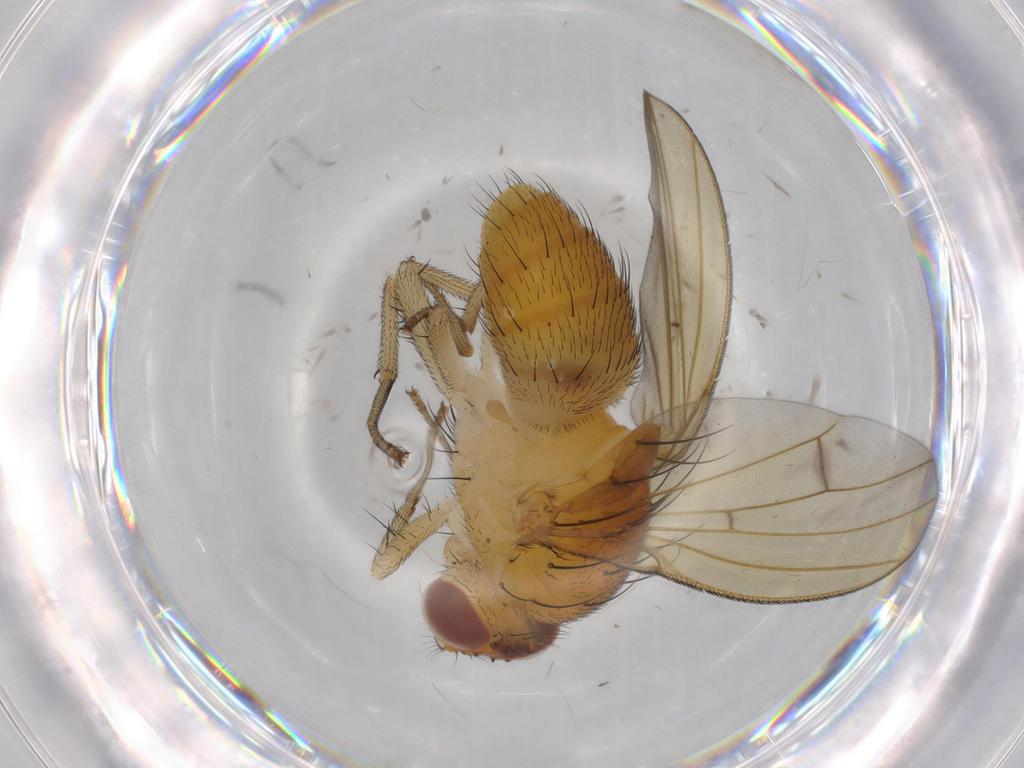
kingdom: Animalia
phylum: Arthropoda
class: Insecta
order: Diptera
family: Lauxaniidae
